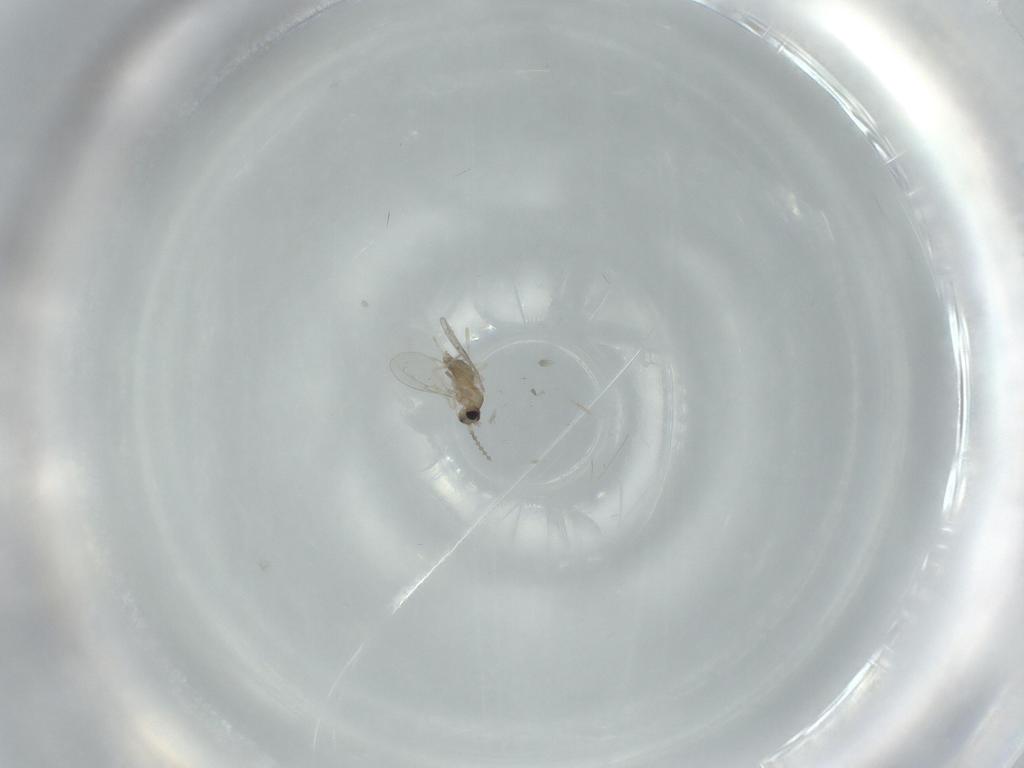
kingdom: Animalia
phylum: Arthropoda
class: Insecta
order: Diptera
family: Cecidomyiidae
